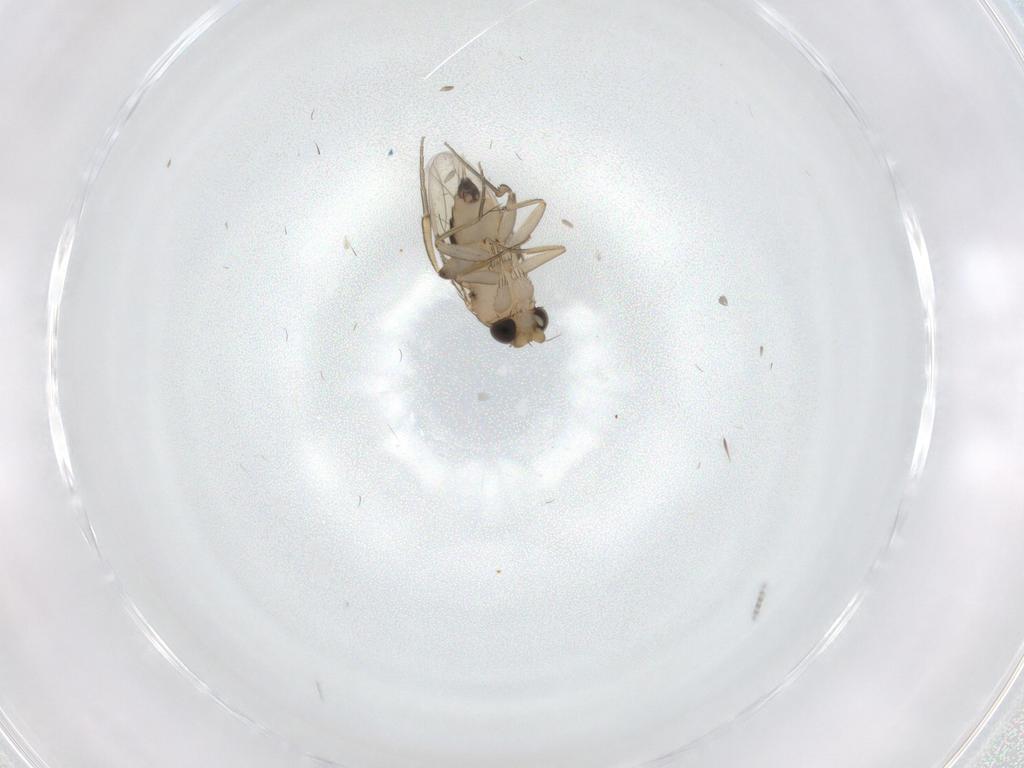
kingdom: Animalia
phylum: Arthropoda
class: Insecta
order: Diptera
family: Phoridae
